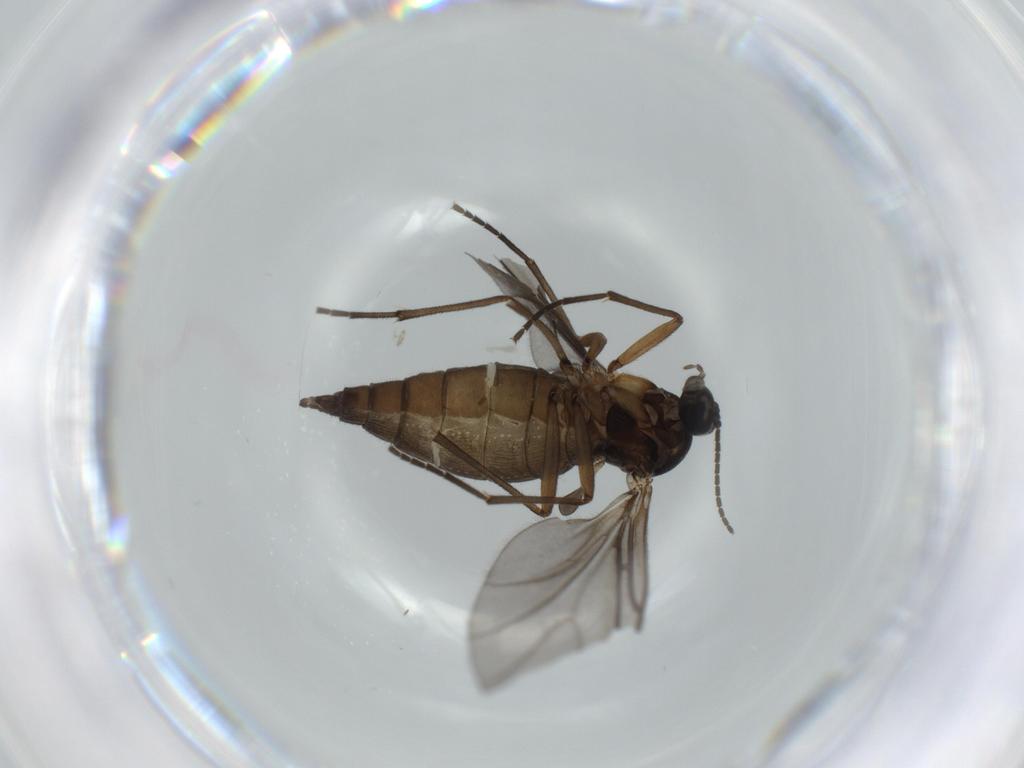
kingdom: Animalia
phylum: Arthropoda
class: Insecta
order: Diptera
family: Sciaridae
